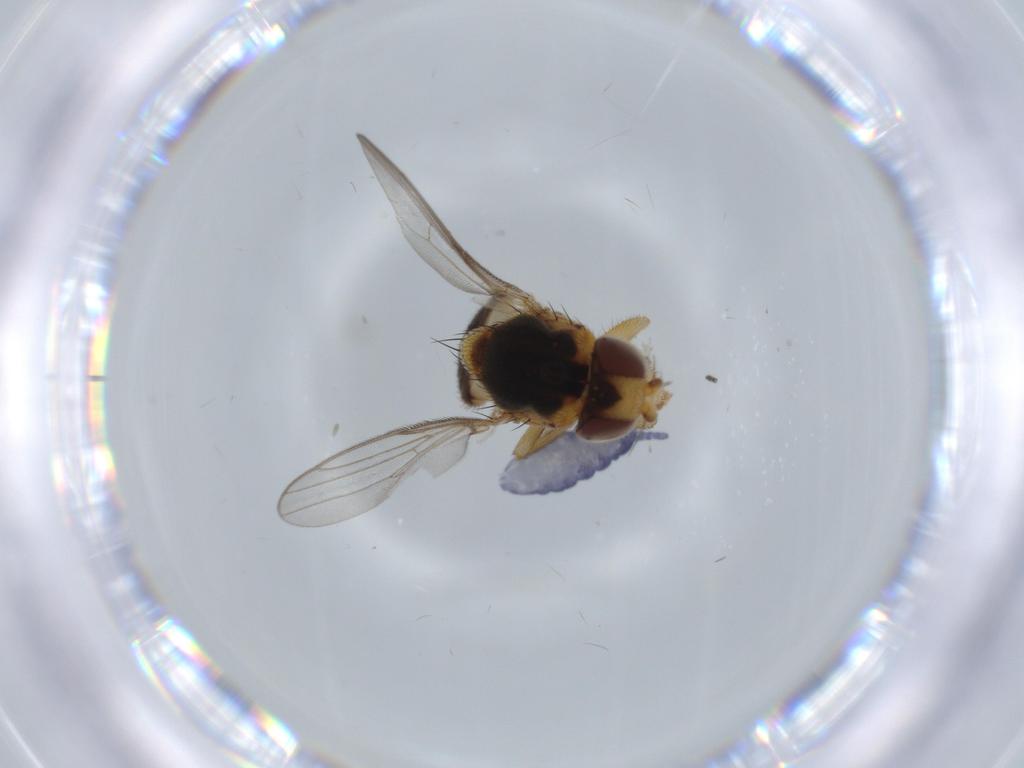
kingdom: Animalia
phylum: Arthropoda
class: Insecta
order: Diptera
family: Chloropidae
